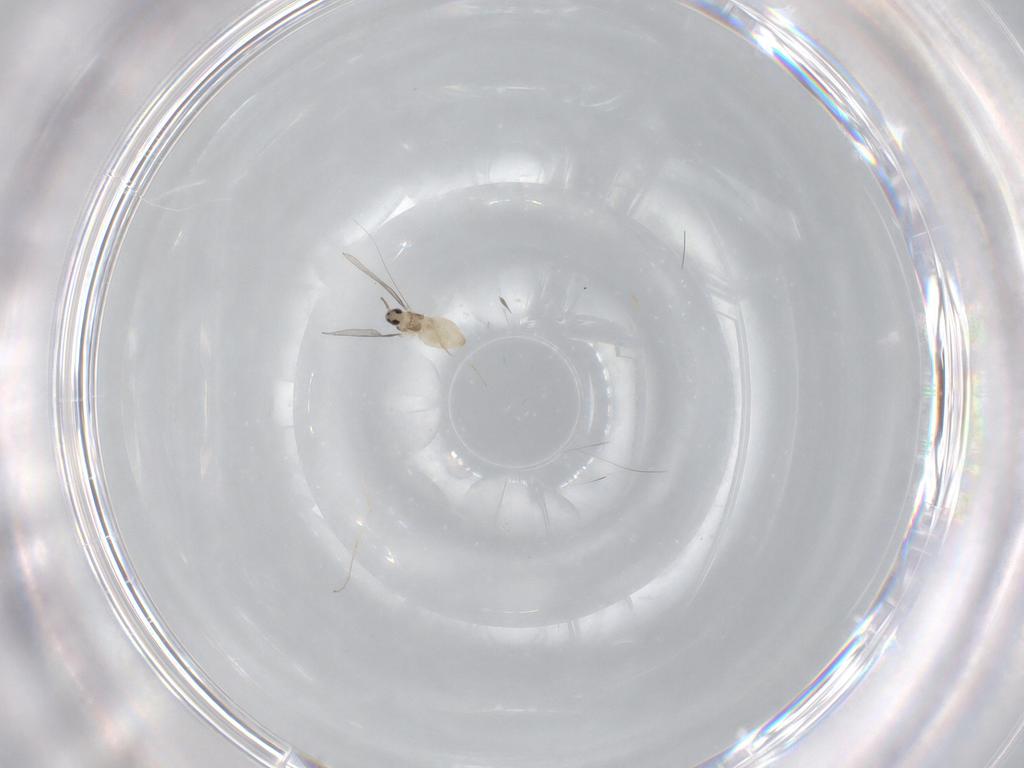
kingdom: Animalia
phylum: Arthropoda
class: Insecta
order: Diptera
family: Cecidomyiidae
